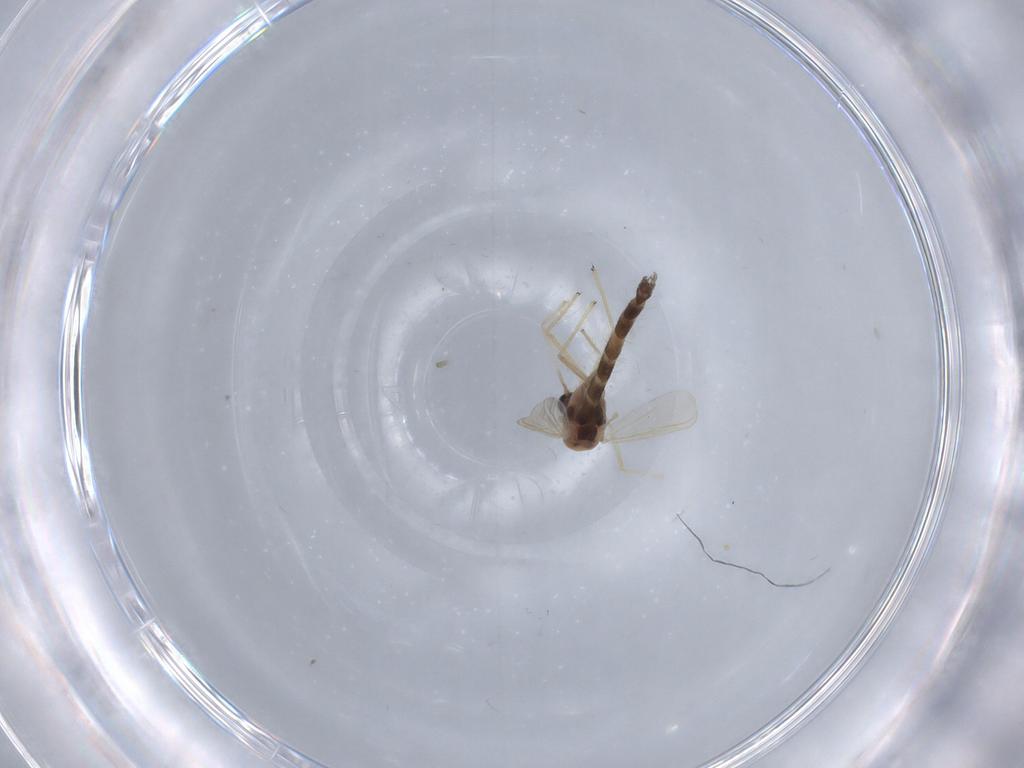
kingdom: Animalia
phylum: Arthropoda
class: Insecta
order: Diptera
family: Chironomidae
